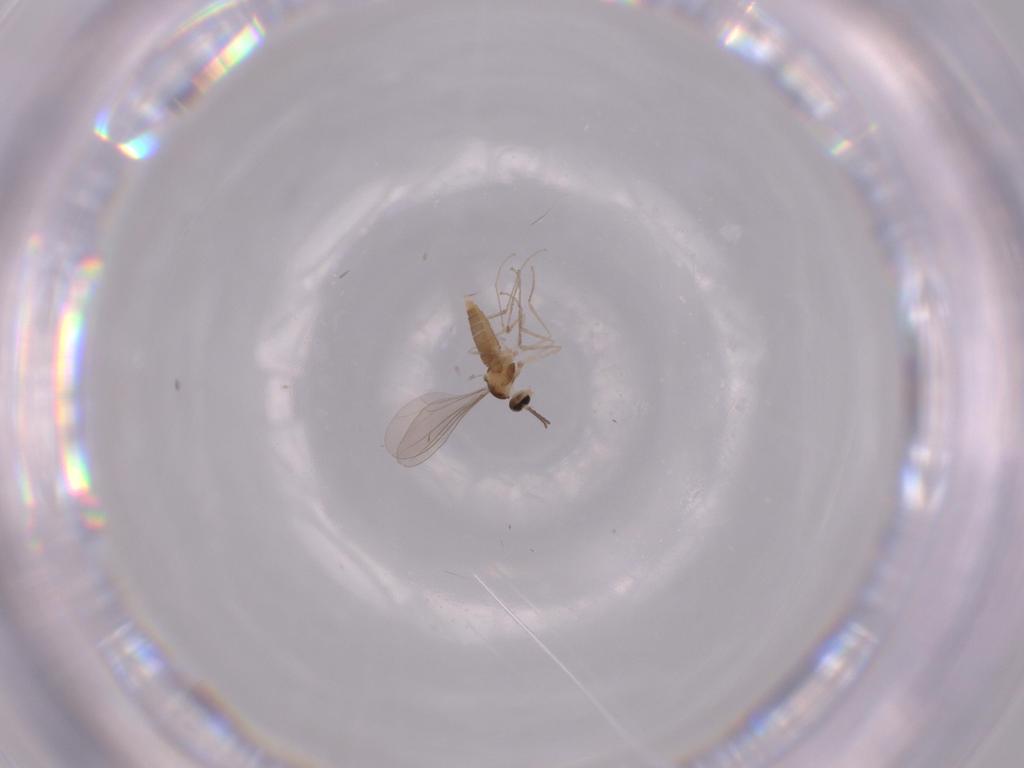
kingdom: Animalia
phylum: Arthropoda
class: Insecta
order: Diptera
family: Cecidomyiidae
